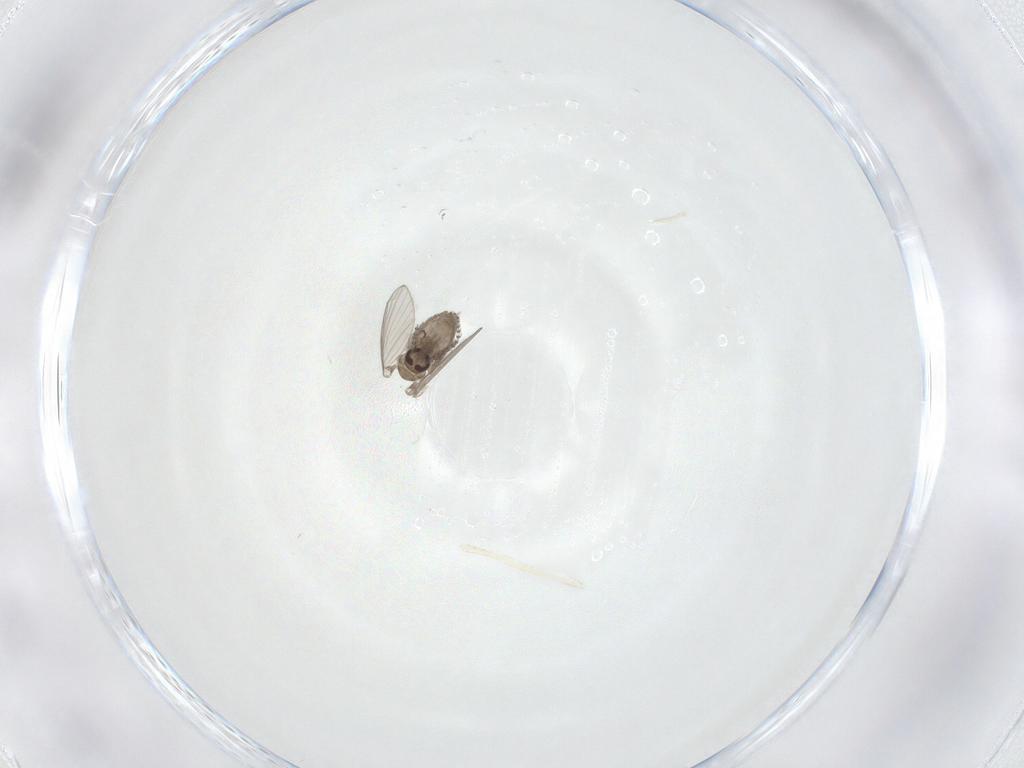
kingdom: Animalia
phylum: Arthropoda
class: Insecta
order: Diptera
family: Psychodidae
